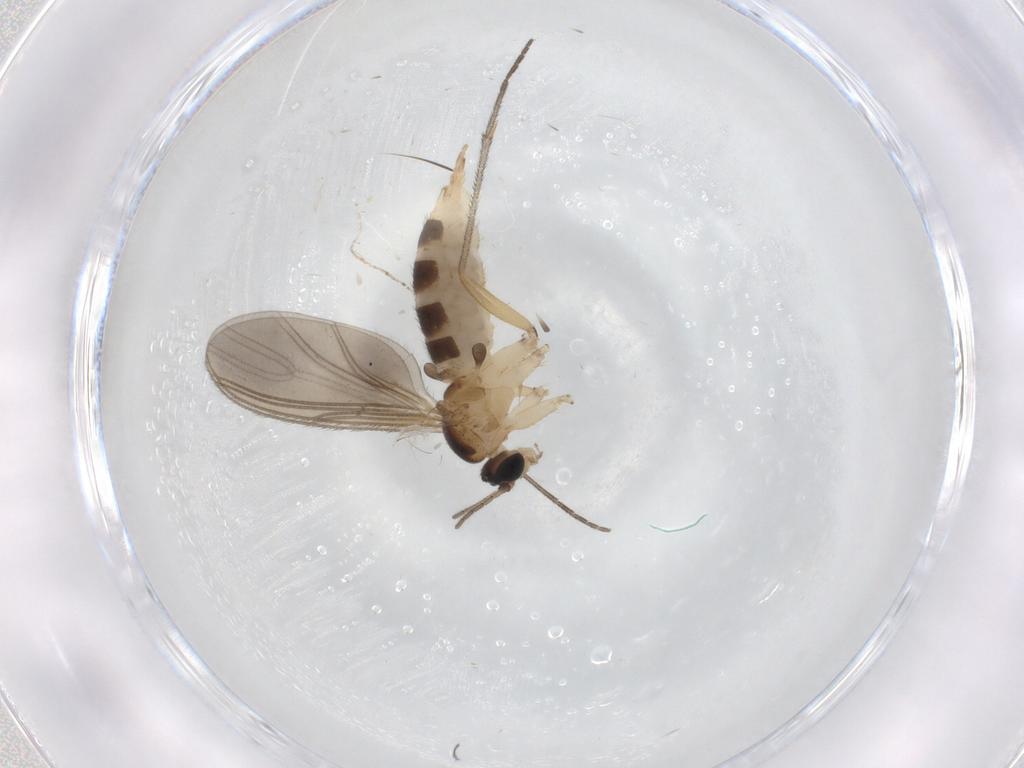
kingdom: Animalia
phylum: Arthropoda
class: Insecta
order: Diptera
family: Sciaridae
